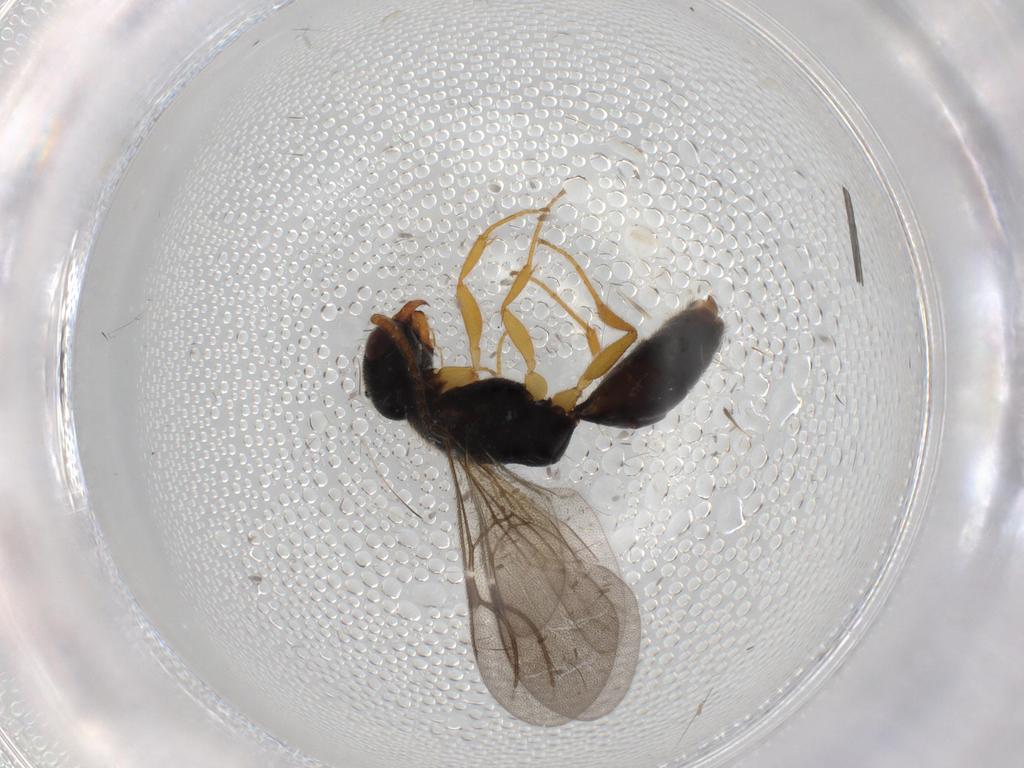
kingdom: Animalia
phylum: Arthropoda
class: Insecta
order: Hymenoptera
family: Bethylidae
